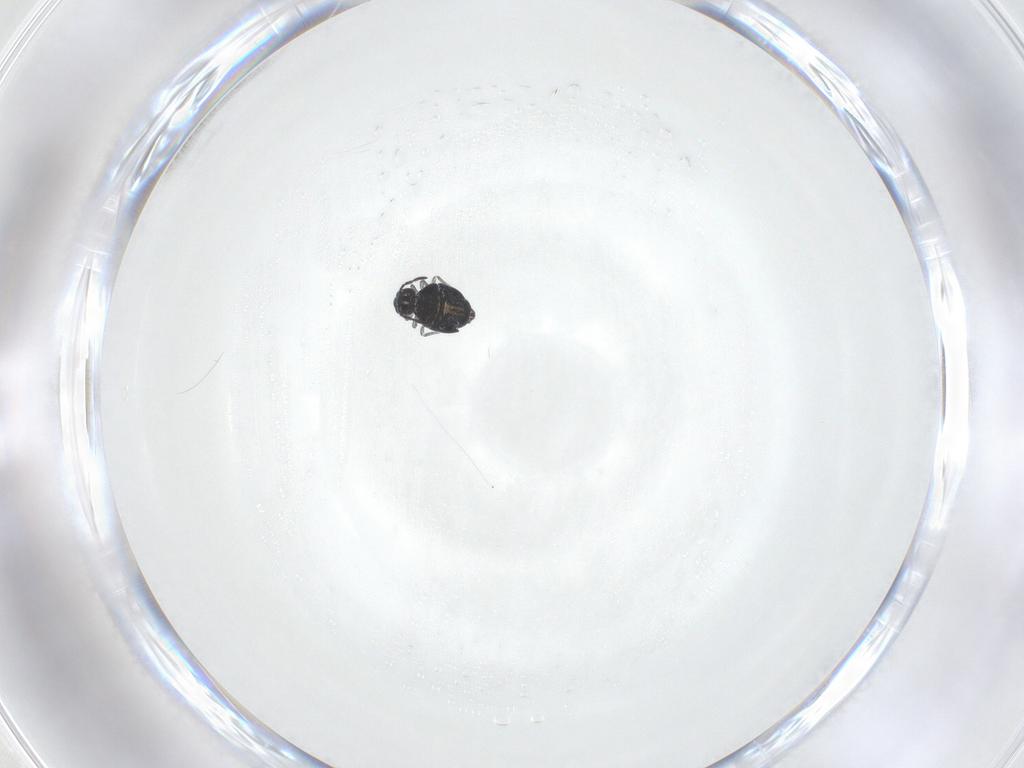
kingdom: Animalia
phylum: Arthropoda
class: Collembola
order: Symphypleona
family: Katiannidae
